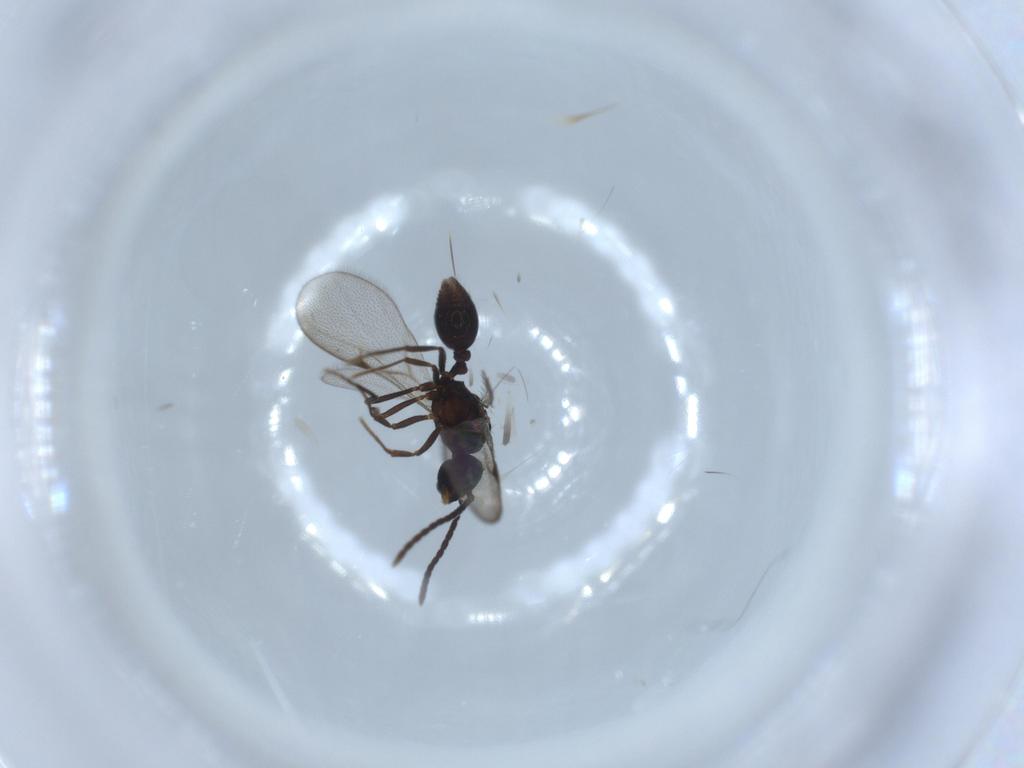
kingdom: Animalia
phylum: Arthropoda
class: Insecta
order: Hymenoptera
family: Formicidae
